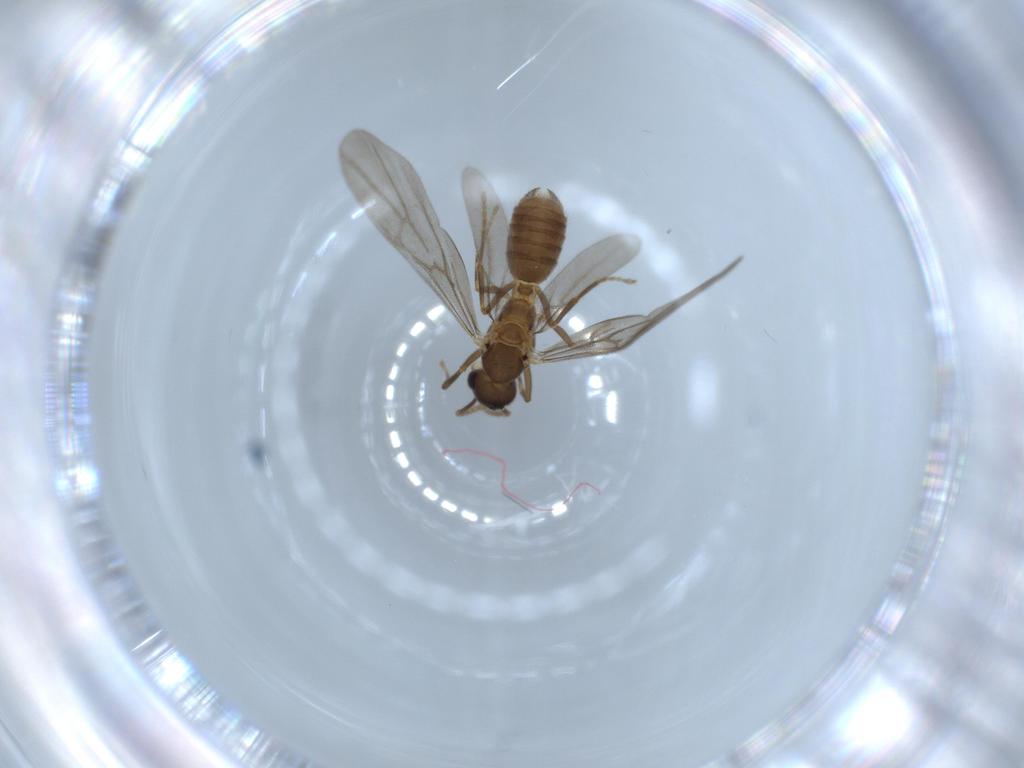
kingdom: Animalia
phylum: Arthropoda
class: Insecta
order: Hymenoptera
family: Formicidae
